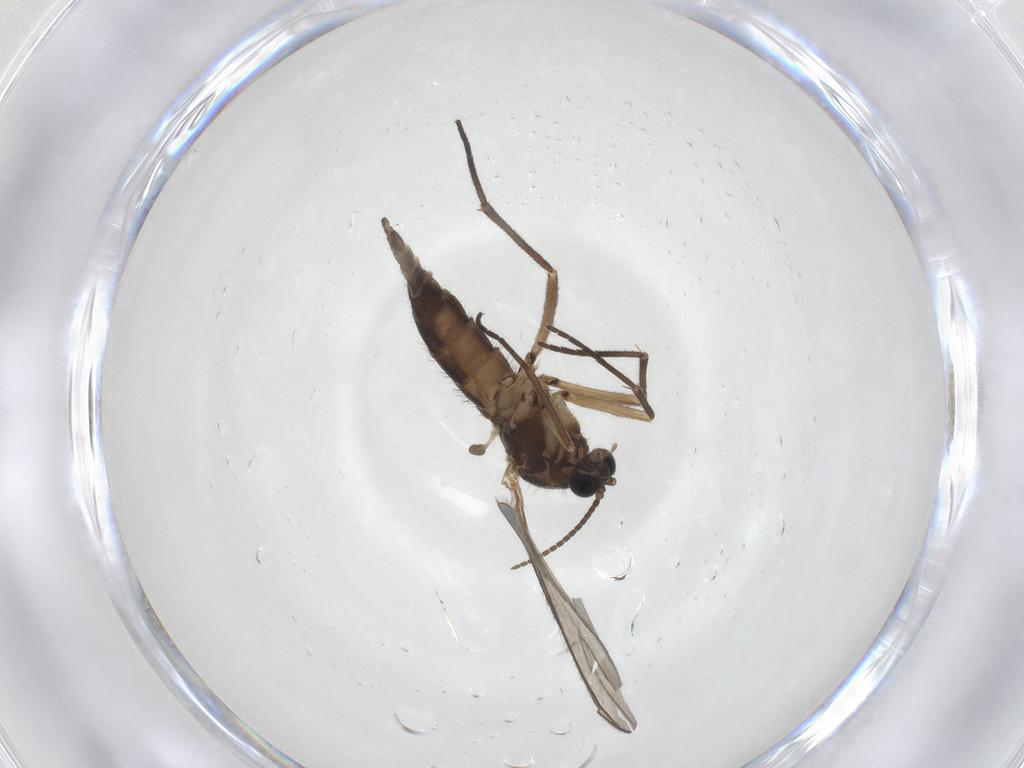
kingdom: Animalia
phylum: Arthropoda
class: Insecta
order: Diptera
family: Sciaridae
